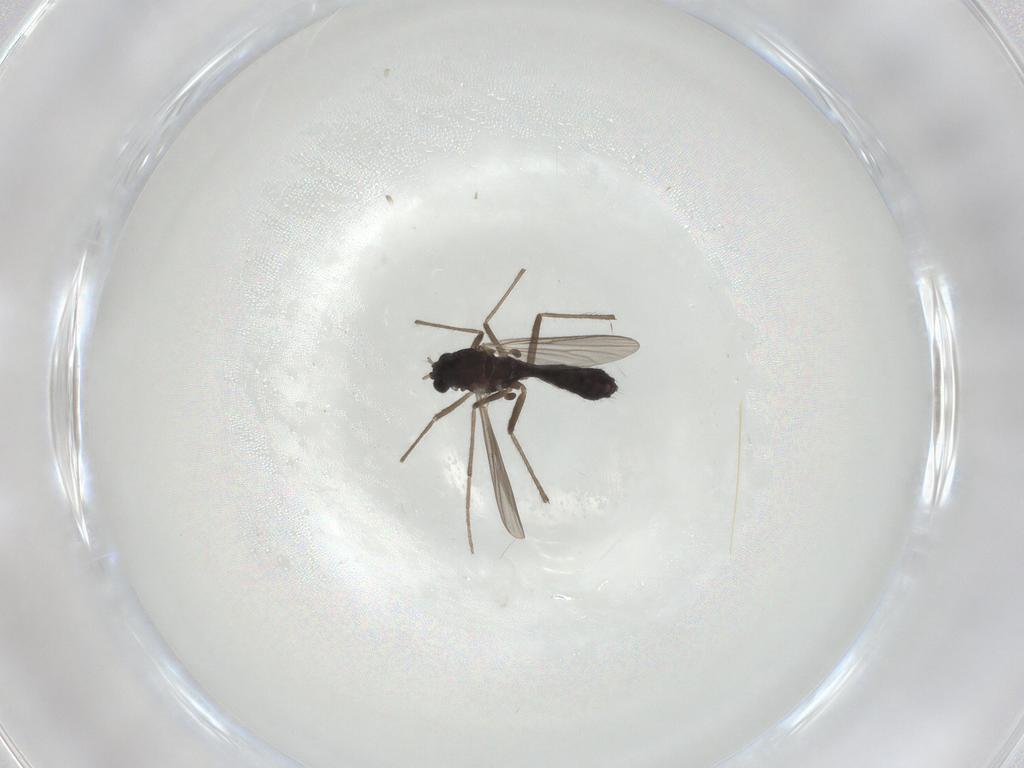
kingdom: Animalia
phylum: Arthropoda
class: Insecta
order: Diptera
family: Chironomidae
